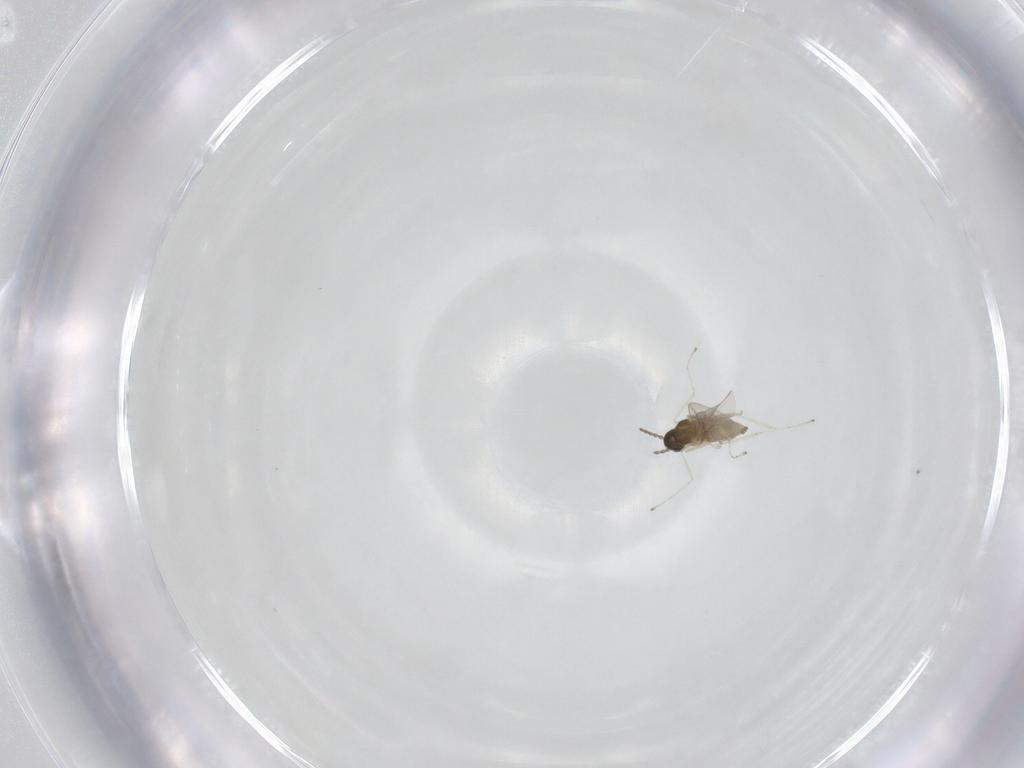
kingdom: Animalia
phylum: Arthropoda
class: Insecta
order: Diptera
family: Cecidomyiidae
